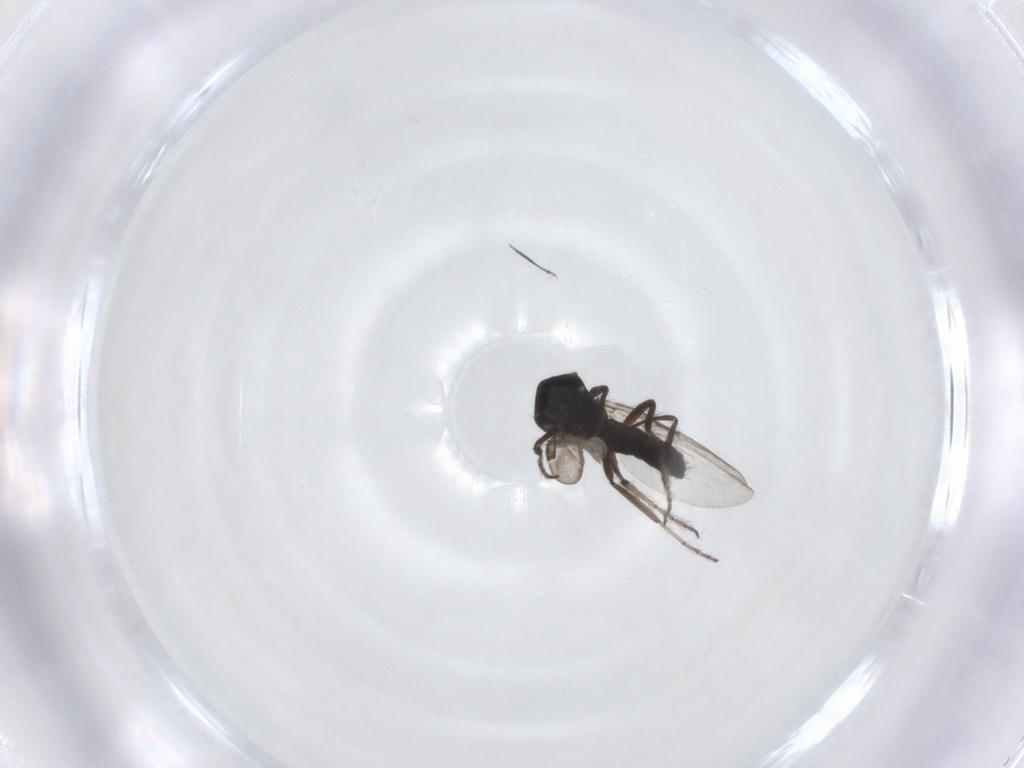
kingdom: Animalia
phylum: Arthropoda
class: Insecta
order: Diptera
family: Ceratopogonidae
